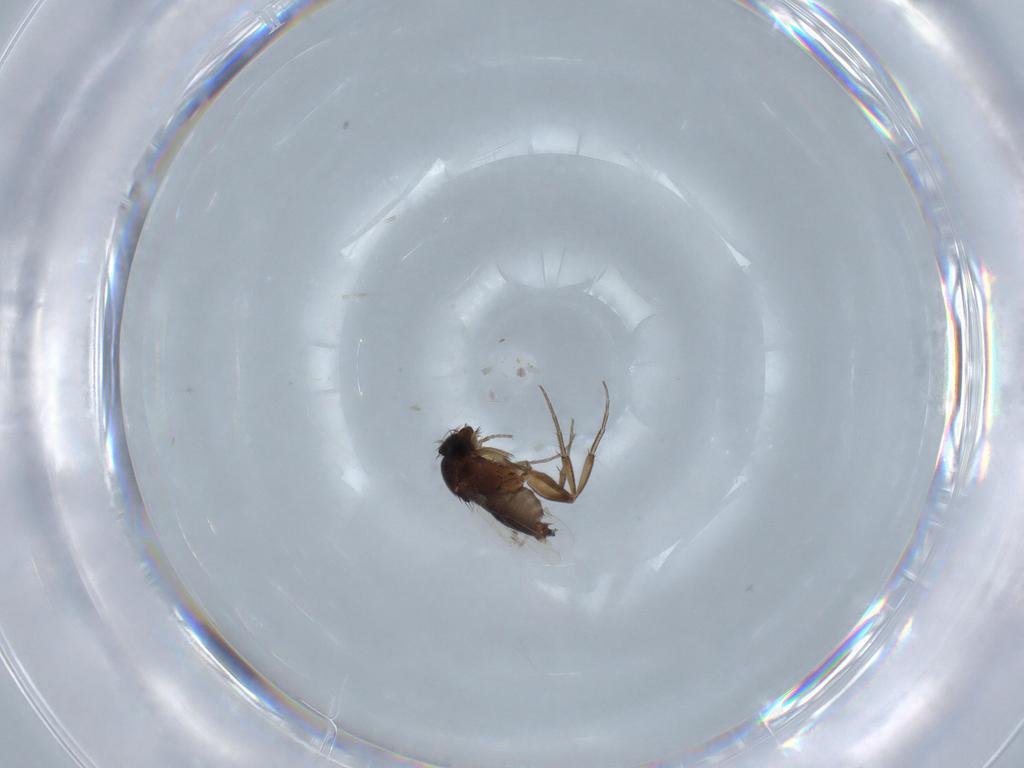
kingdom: Animalia
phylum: Arthropoda
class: Insecta
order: Diptera
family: Phoridae
